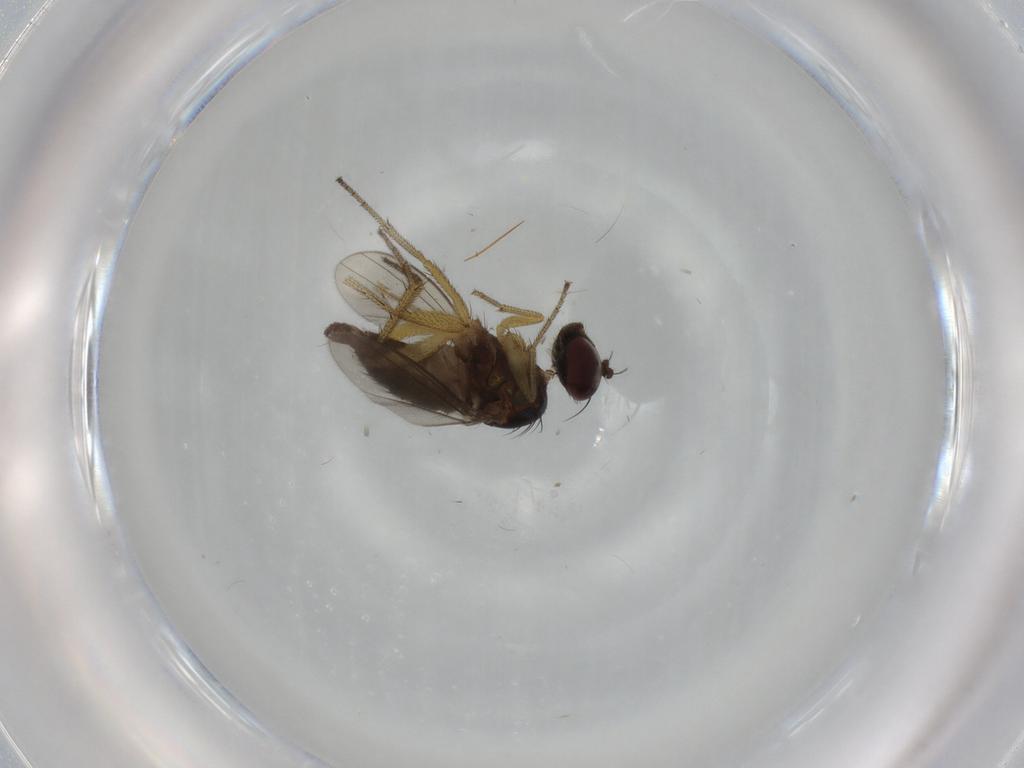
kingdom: Animalia
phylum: Arthropoda
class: Insecta
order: Diptera
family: Dolichopodidae
